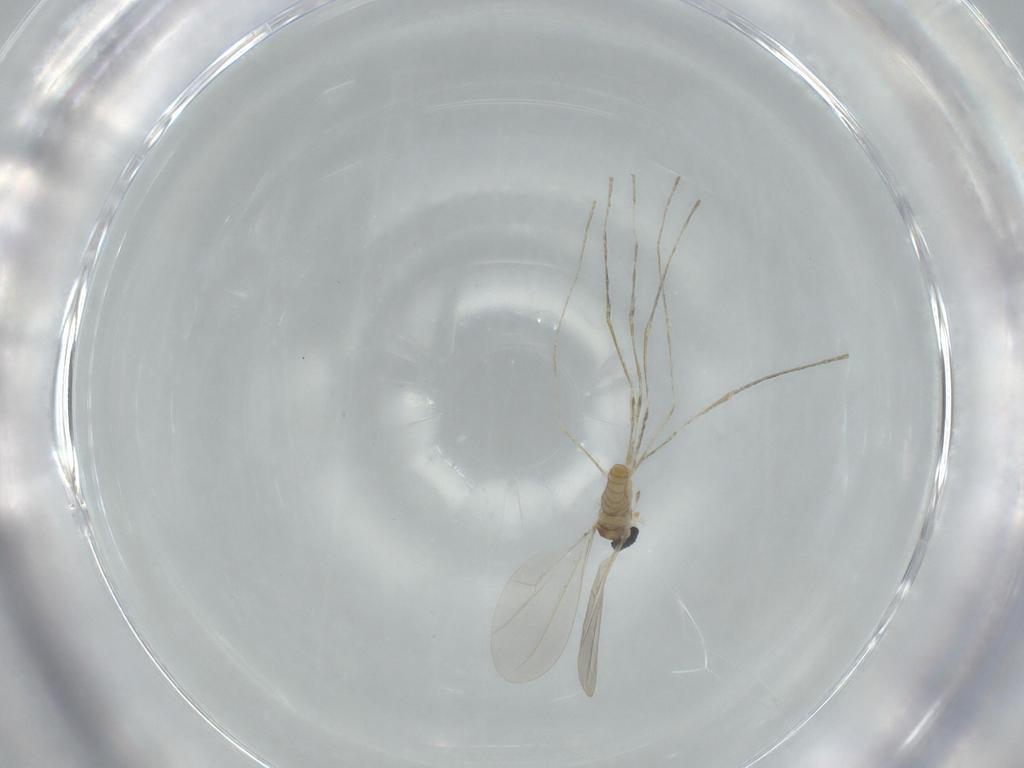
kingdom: Animalia
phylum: Arthropoda
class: Insecta
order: Diptera
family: Cecidomyiidae
